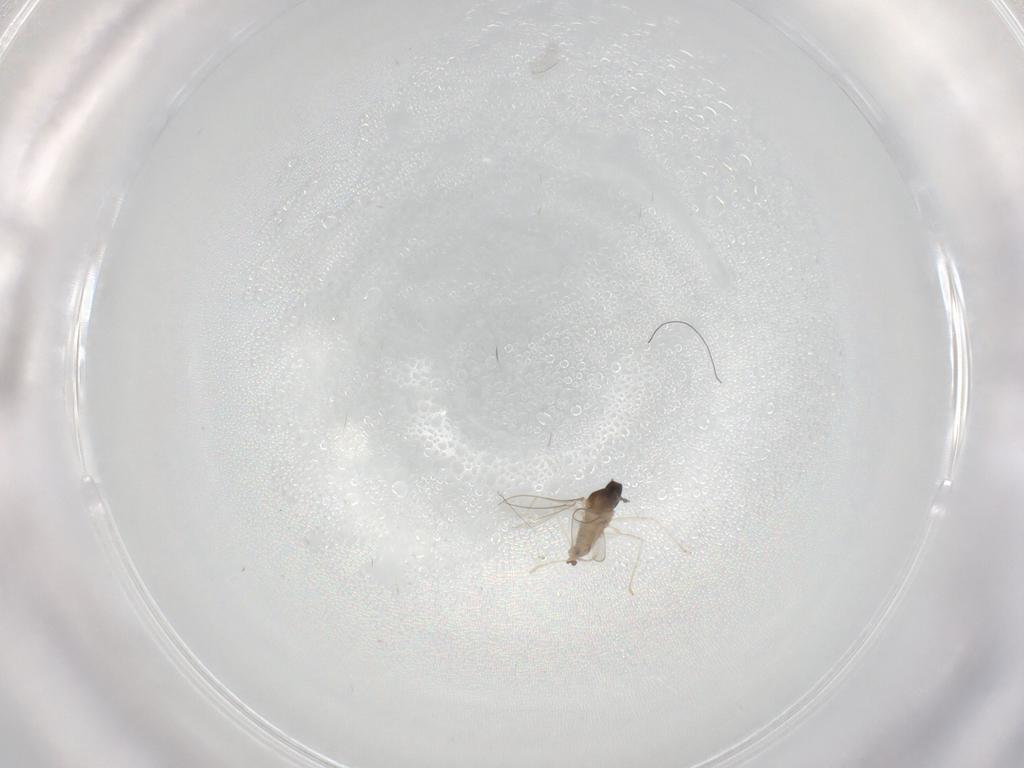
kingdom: Animalia
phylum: Arthropoda
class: Insecta
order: Diptera
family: Cecidomyiidae
